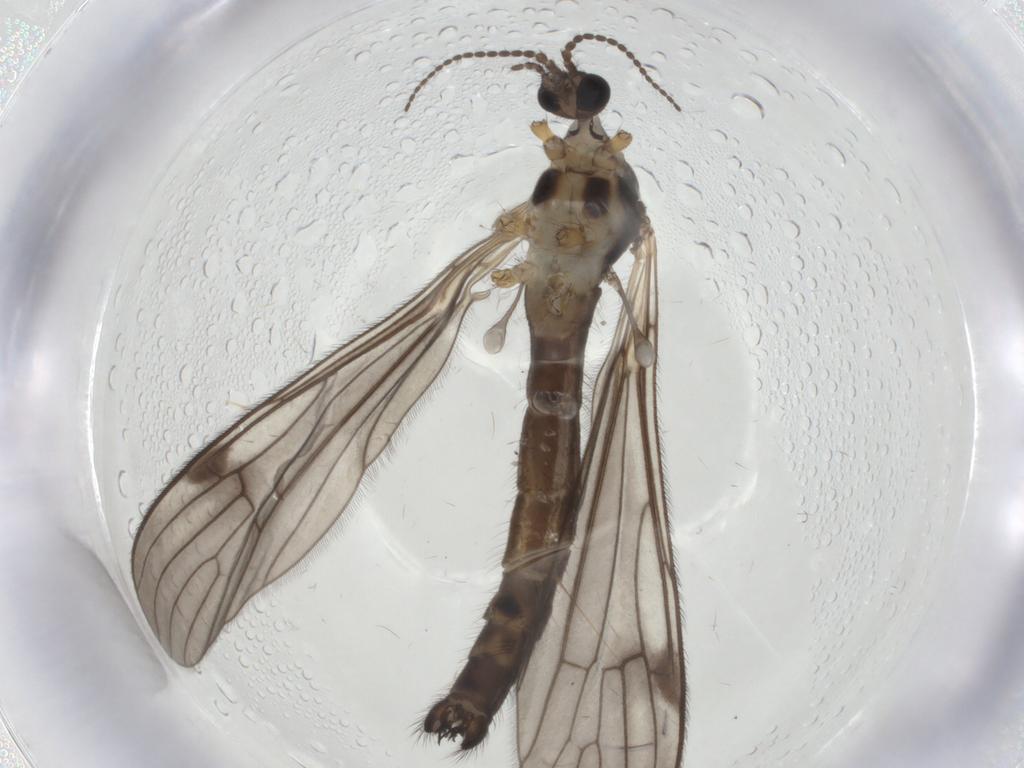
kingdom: Animalia
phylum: Arthropoda
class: Insecta
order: Diptera
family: Limoniidae
